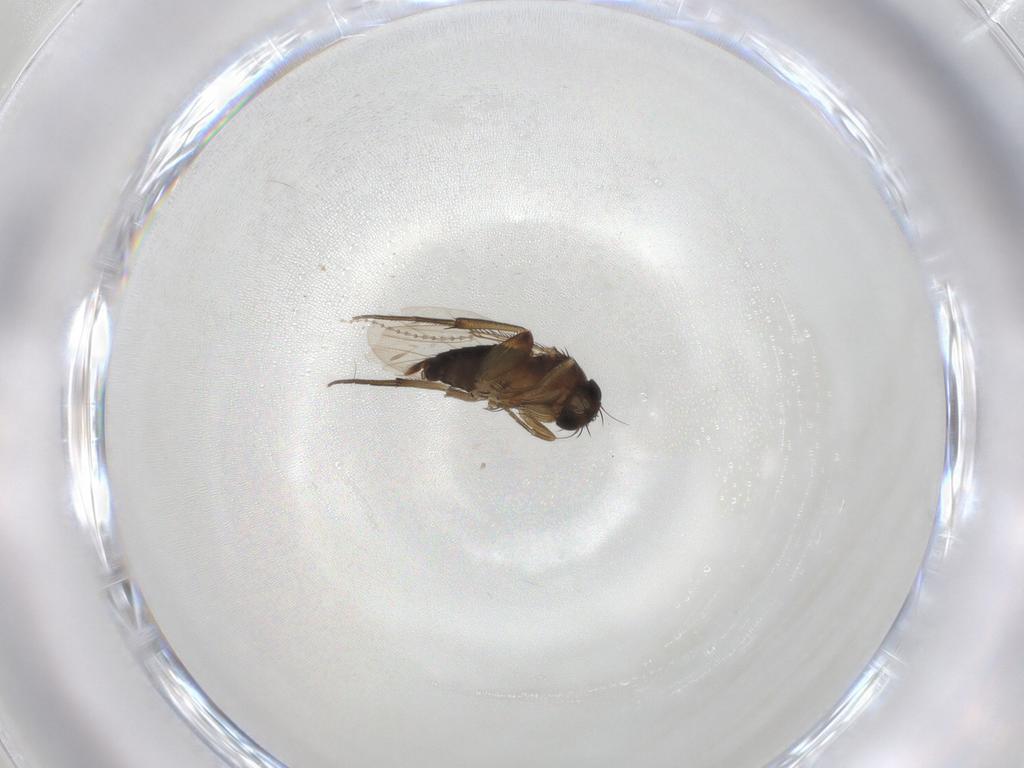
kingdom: Animalia
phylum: Arthropoda
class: Insecta
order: Diptera
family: Phoridae
